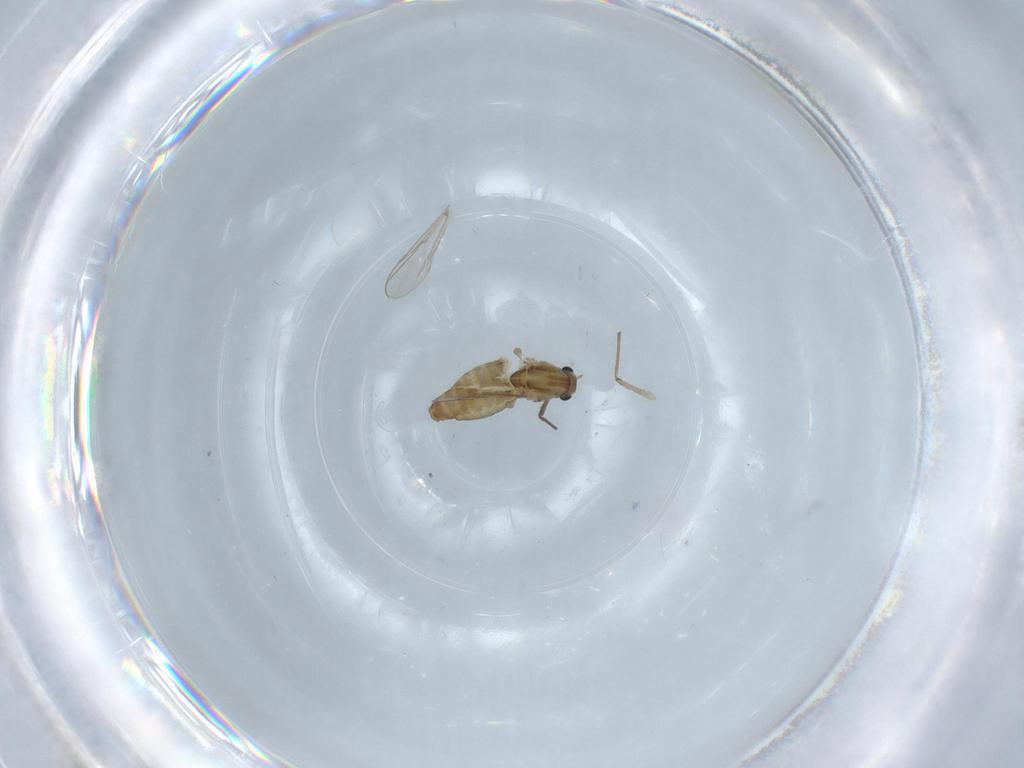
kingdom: Animalia
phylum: Arthropoda
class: Insecta
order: Diptera
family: Chironomidae
